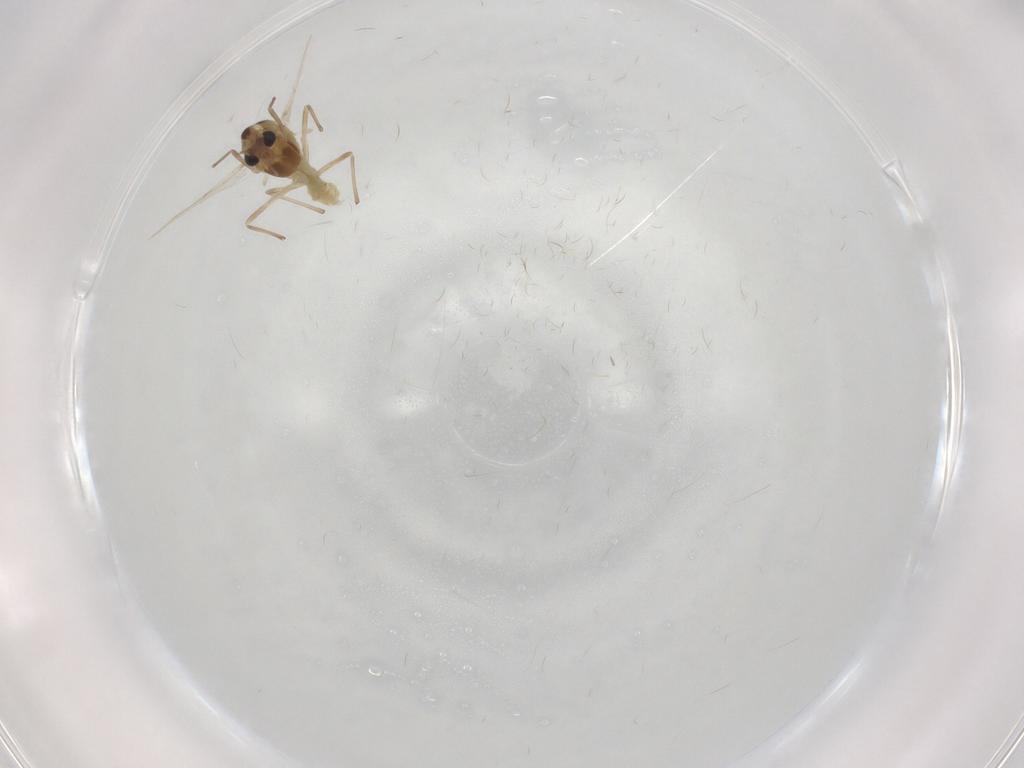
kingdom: Animalia
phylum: Arthropoda
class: Insecta
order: Diptera
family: Chironomidae
